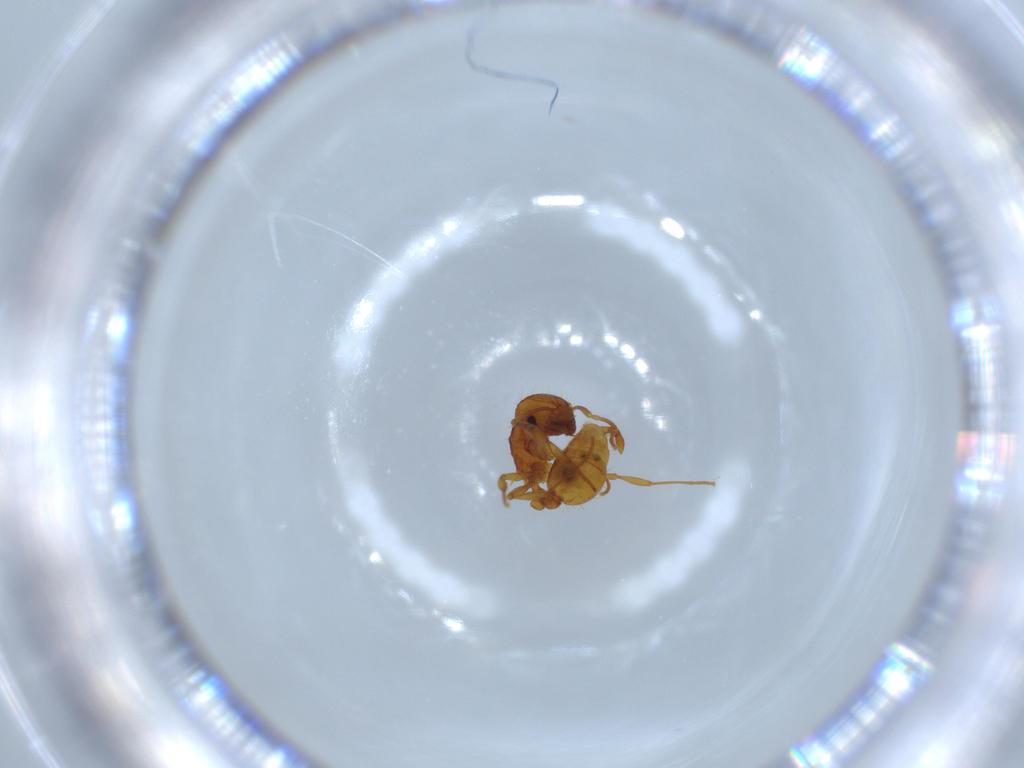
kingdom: Animalia
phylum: Arthropoda
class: Insecta
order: Hymenoptera
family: Formicidae
